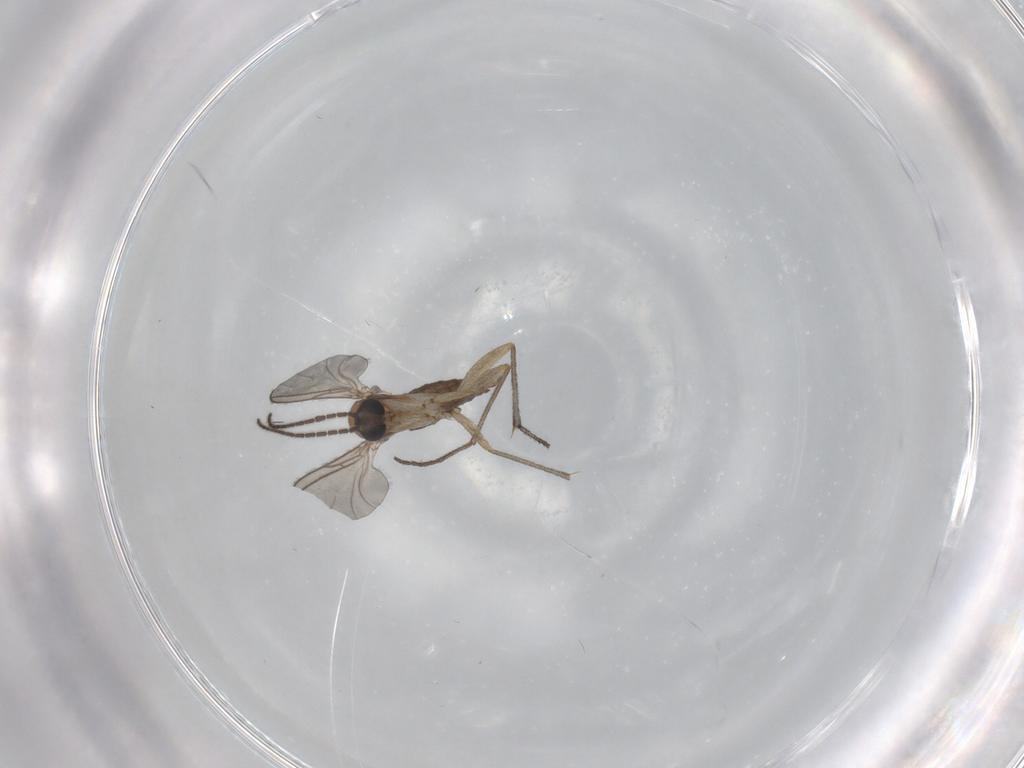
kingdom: Animalia
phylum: Arthropoda
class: Insecta
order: Diptera
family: Sciaridae
